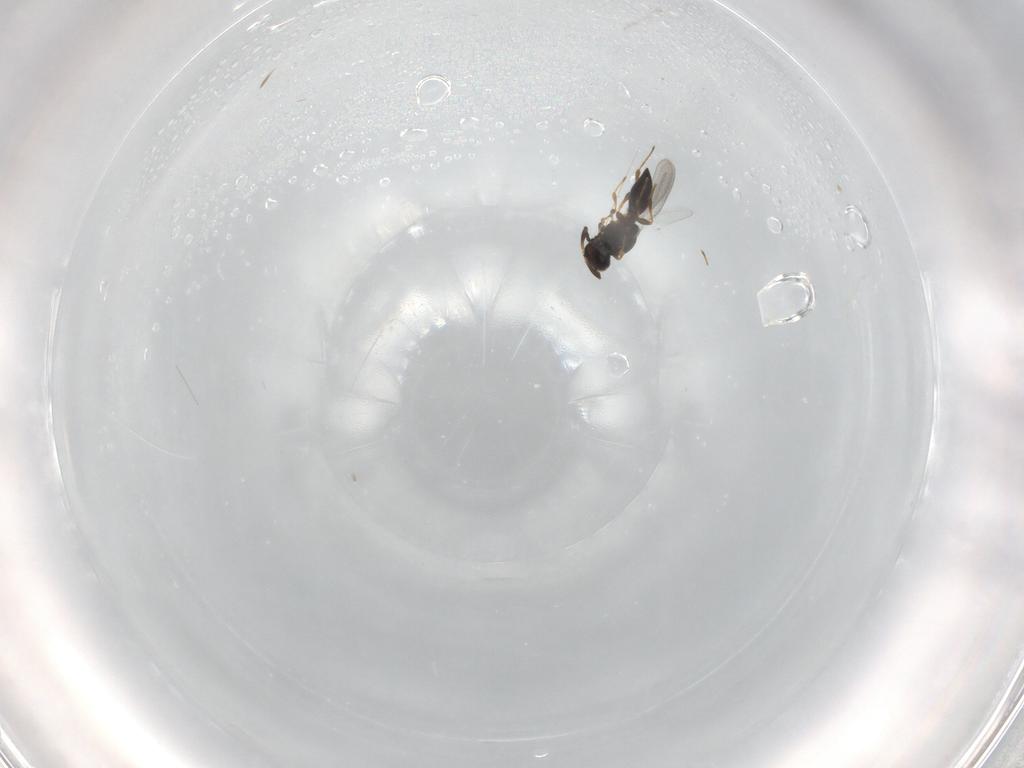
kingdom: Animalia
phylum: Arthropoda
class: Insecta
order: Hymenoptera
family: Platygastridae
